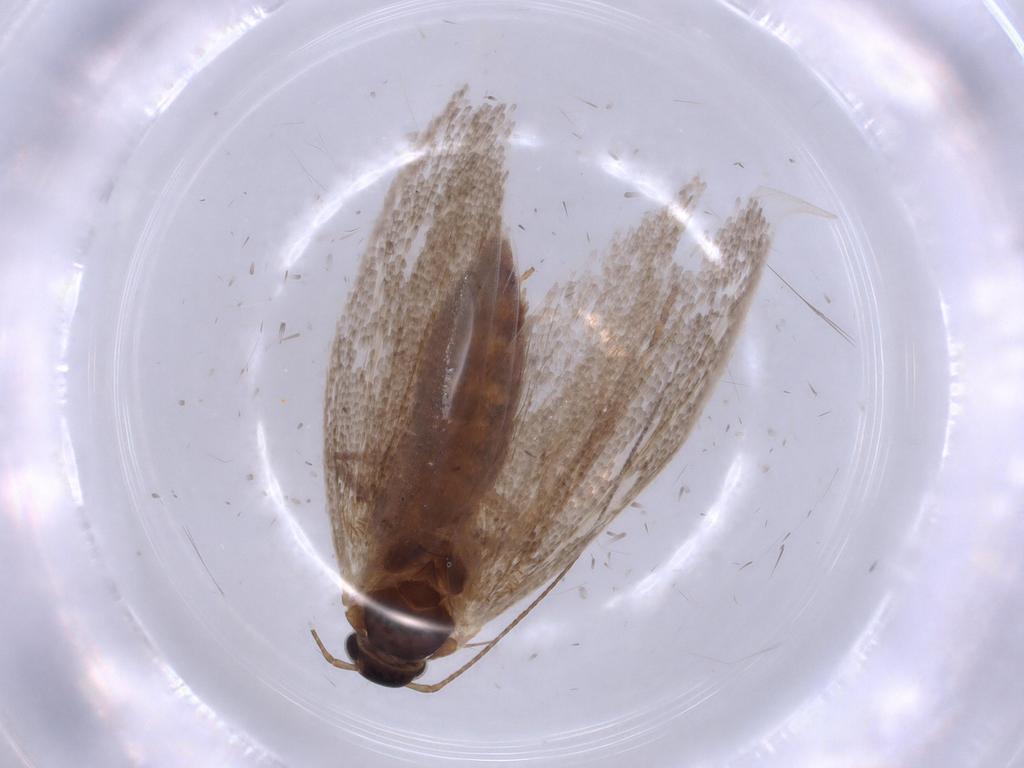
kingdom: Animalia
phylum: Arthropoda
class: Insecta
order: Lepidoptera
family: Oecophoridae
